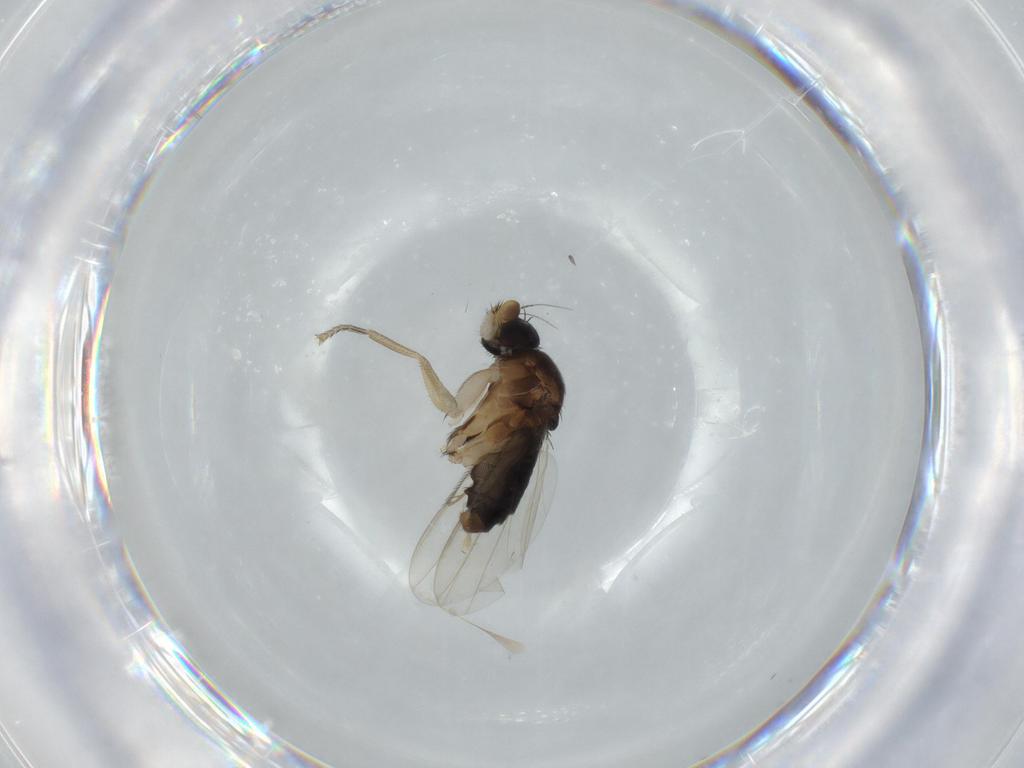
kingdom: Animalia
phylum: Arthropoda
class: Insecta
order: Diptera
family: Phoridae
